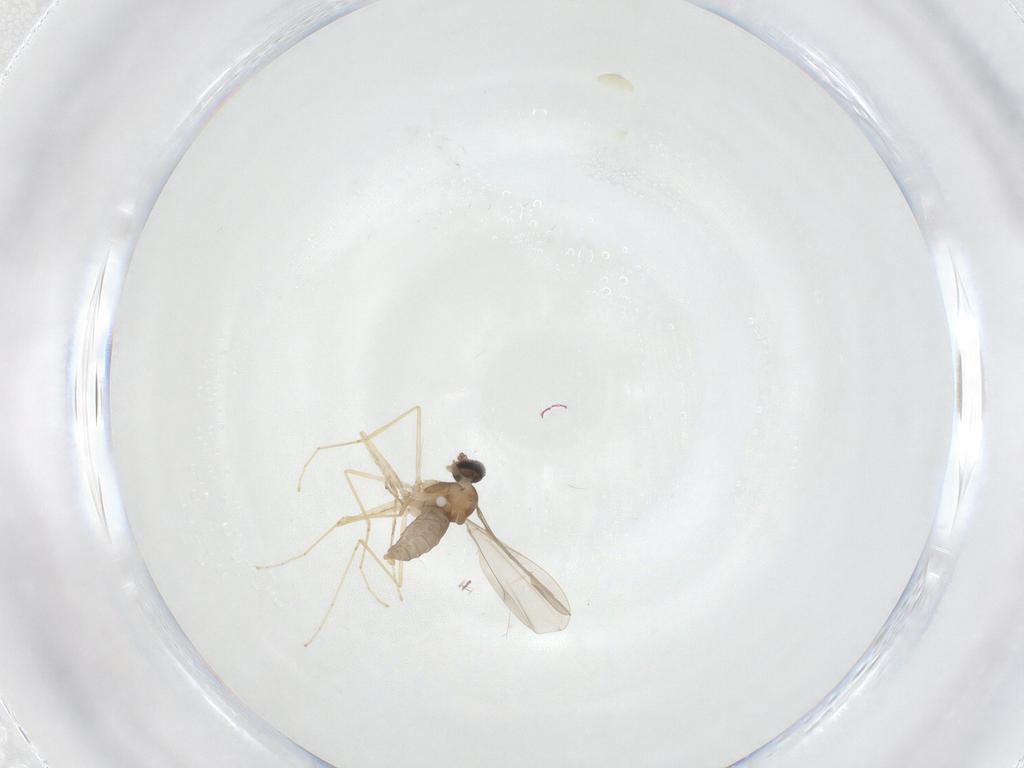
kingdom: Animalia
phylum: Arthropoda
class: Insecta
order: Diptera
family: Cecidomyiidae
